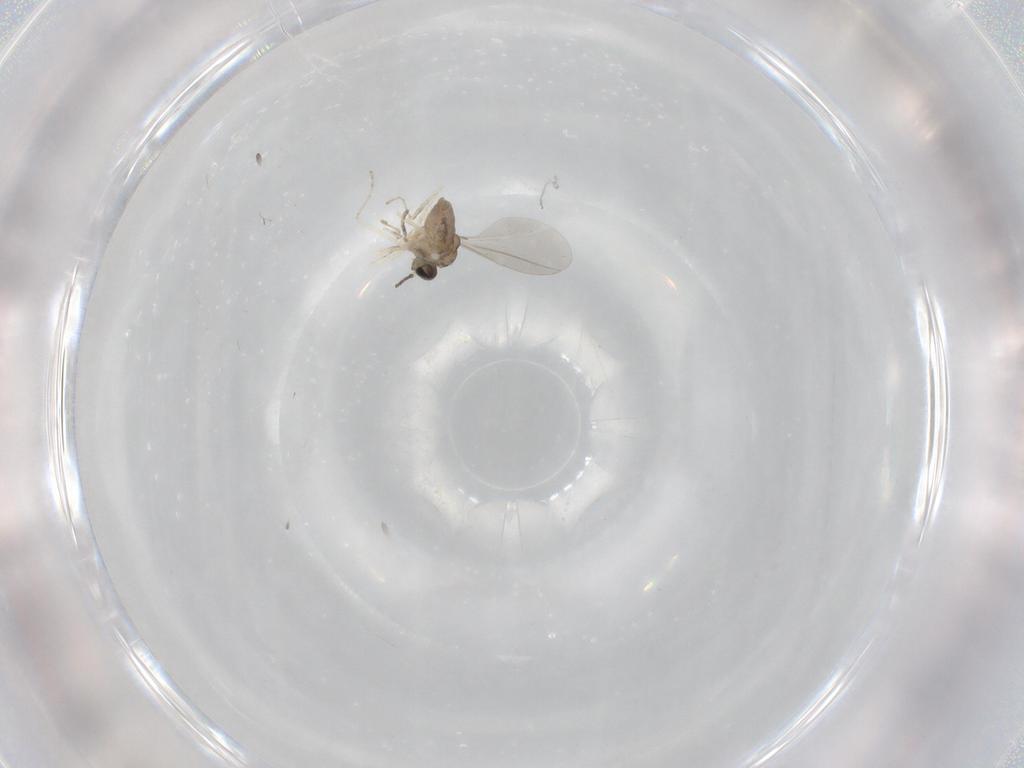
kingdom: Animalia
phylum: Arthropoda
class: Insecta
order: Diptera
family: Cecidomyiidae
